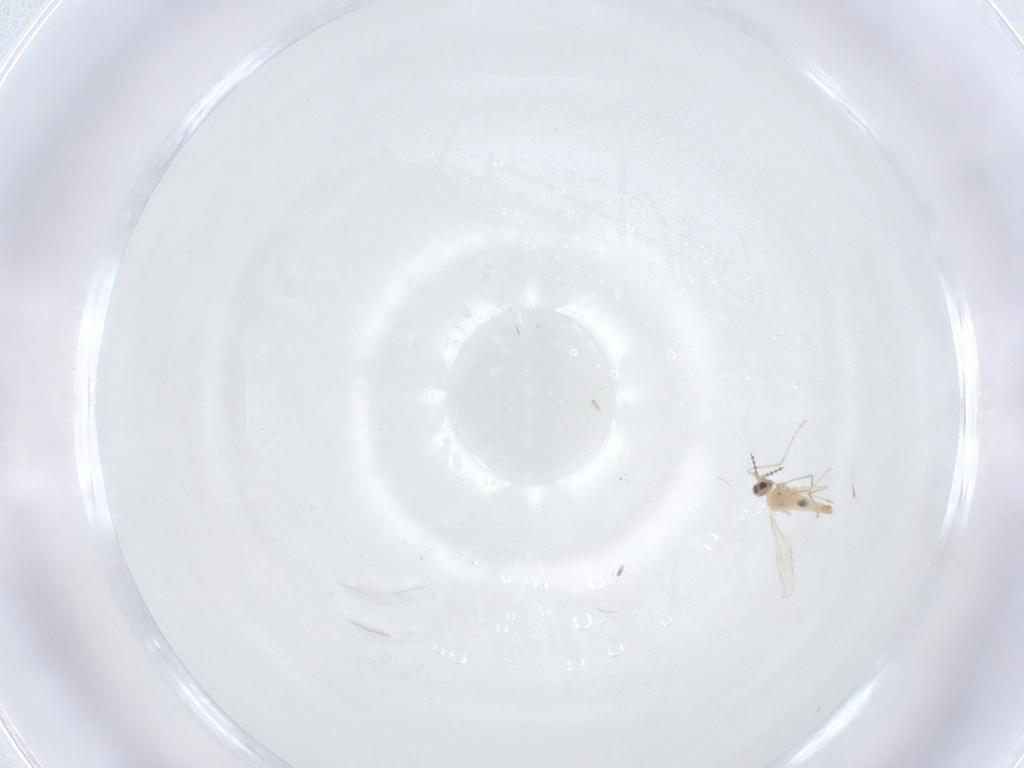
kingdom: Animalia
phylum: Arthropoda
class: Insecta
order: Diptera
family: Cecidomyiidae
